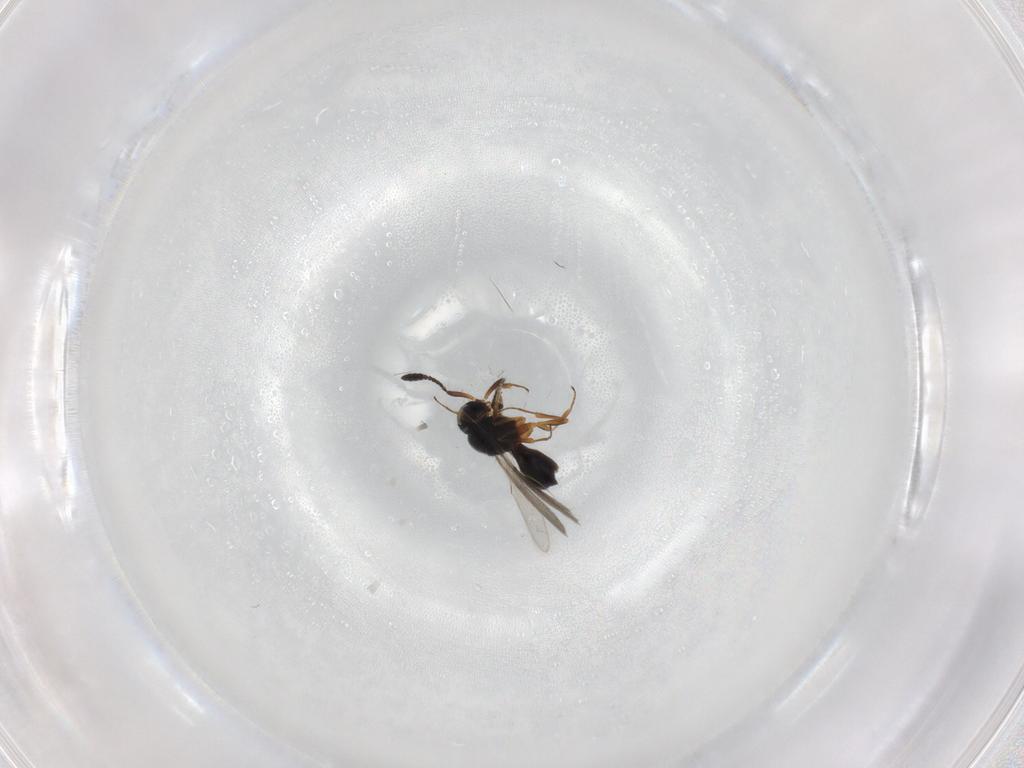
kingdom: Animalia
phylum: Arthropoda
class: Insecta
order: Hymenoptera
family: Scelionidae
